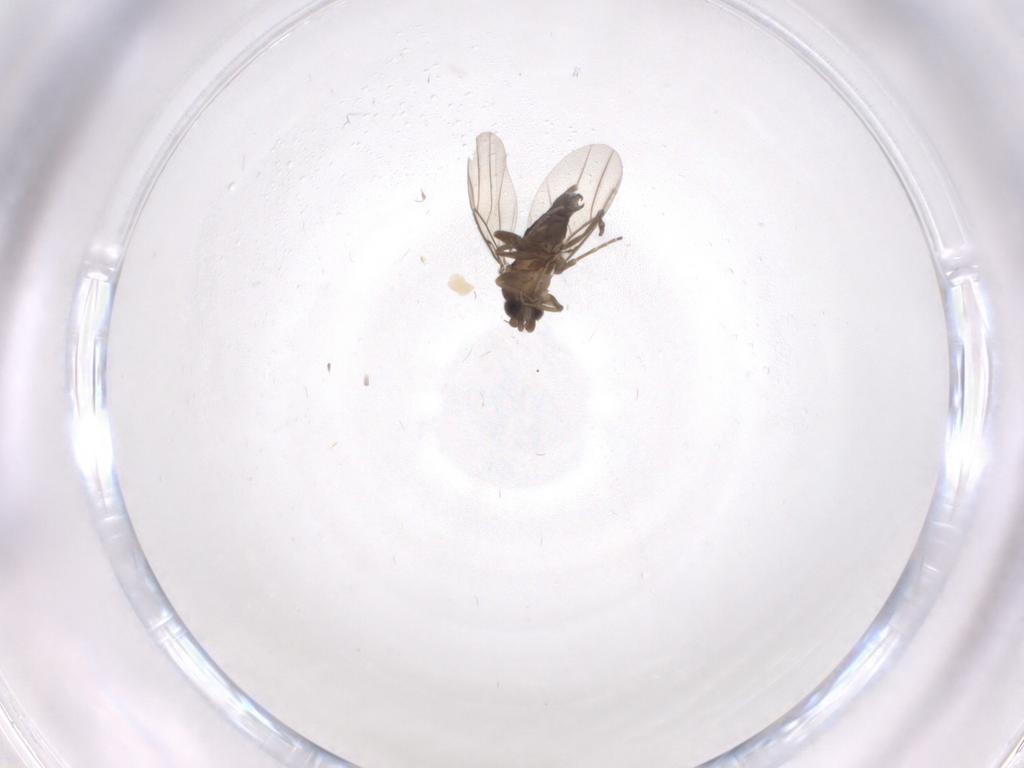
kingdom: Animalia
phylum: Arthropoda
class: Insecta
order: Diptera
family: Phoridae
